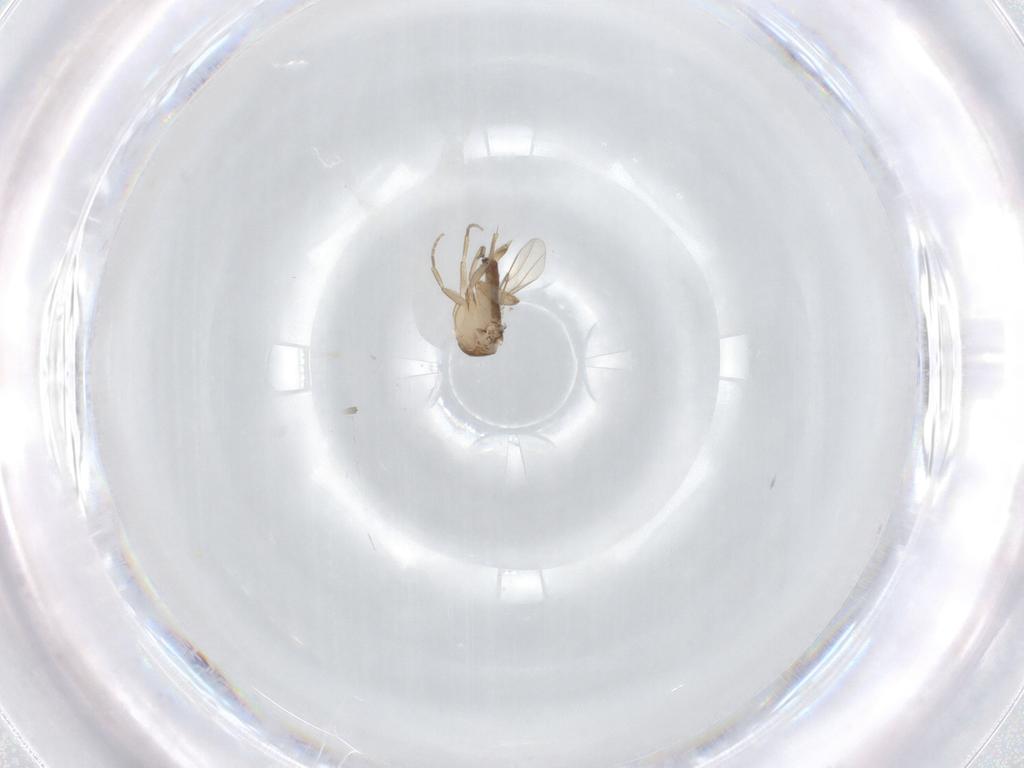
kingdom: Animalia
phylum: Arthropoda
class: Insecta
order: Diptera
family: Phoridae
